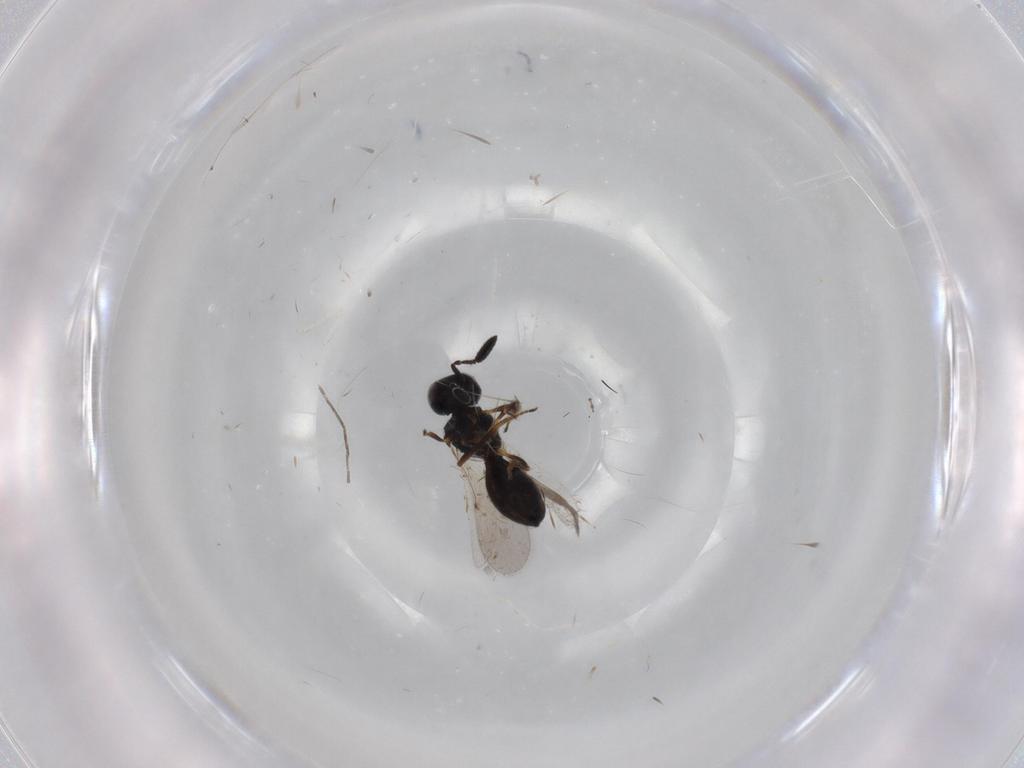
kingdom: Animalia
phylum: Arthropoda
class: Insecta
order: Hymenoptera
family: Scelionidae
